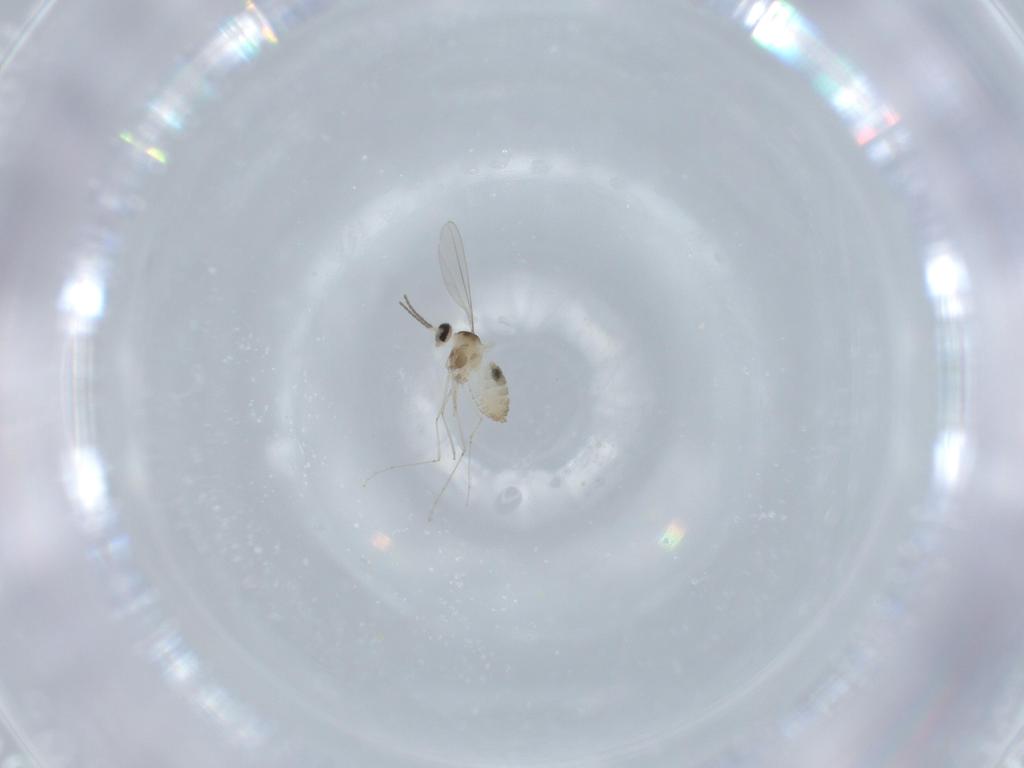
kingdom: Animalia
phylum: Arthropoda
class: Insecta
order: Diptera
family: Cecidomyiidae
